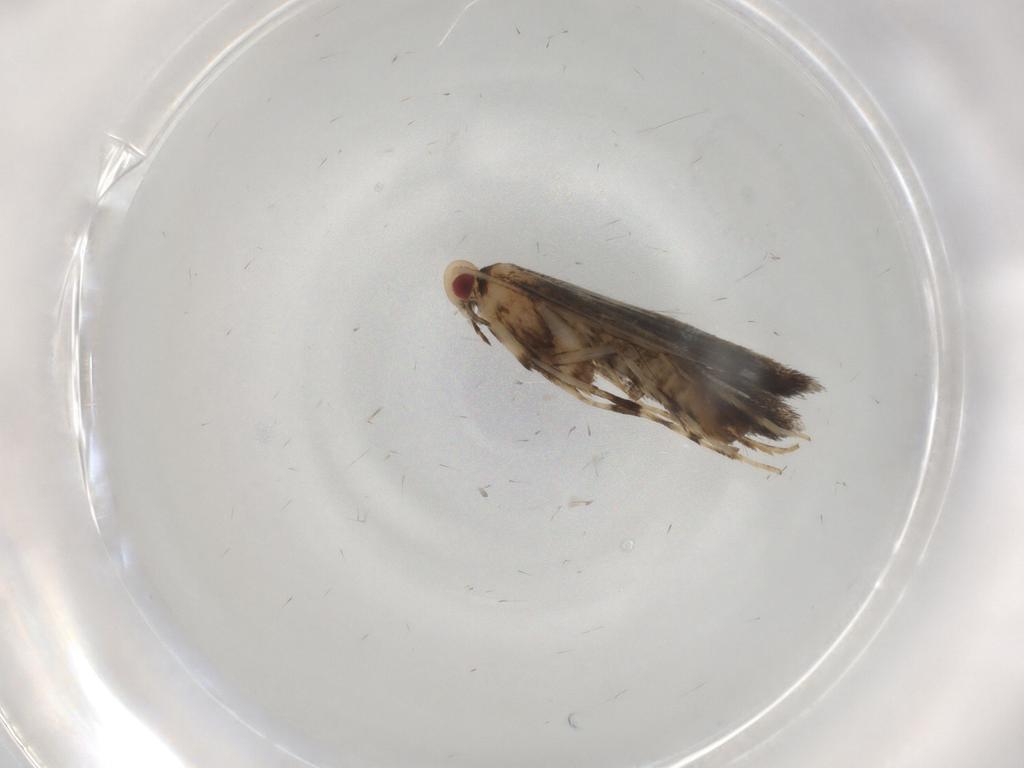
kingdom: Animalia
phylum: Arthropoda
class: Insecta
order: Lepidoptera
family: Gracillariidae
